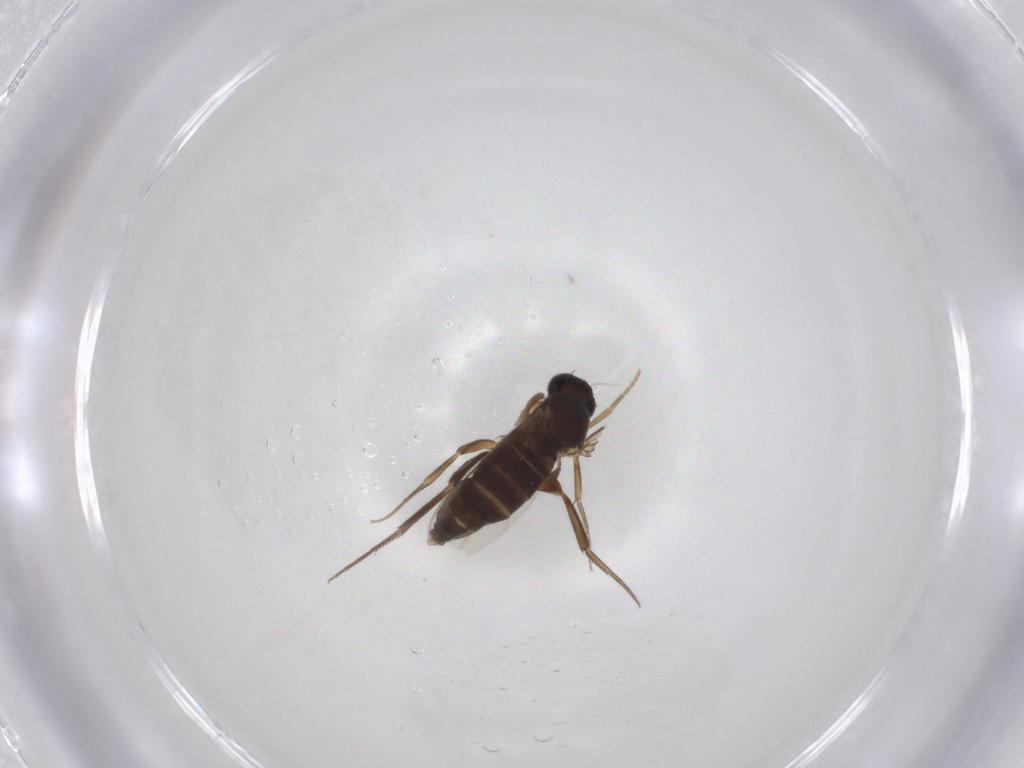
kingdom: Animalia
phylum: Arthropoda
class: Insecta
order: Diptera
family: Phoridae
